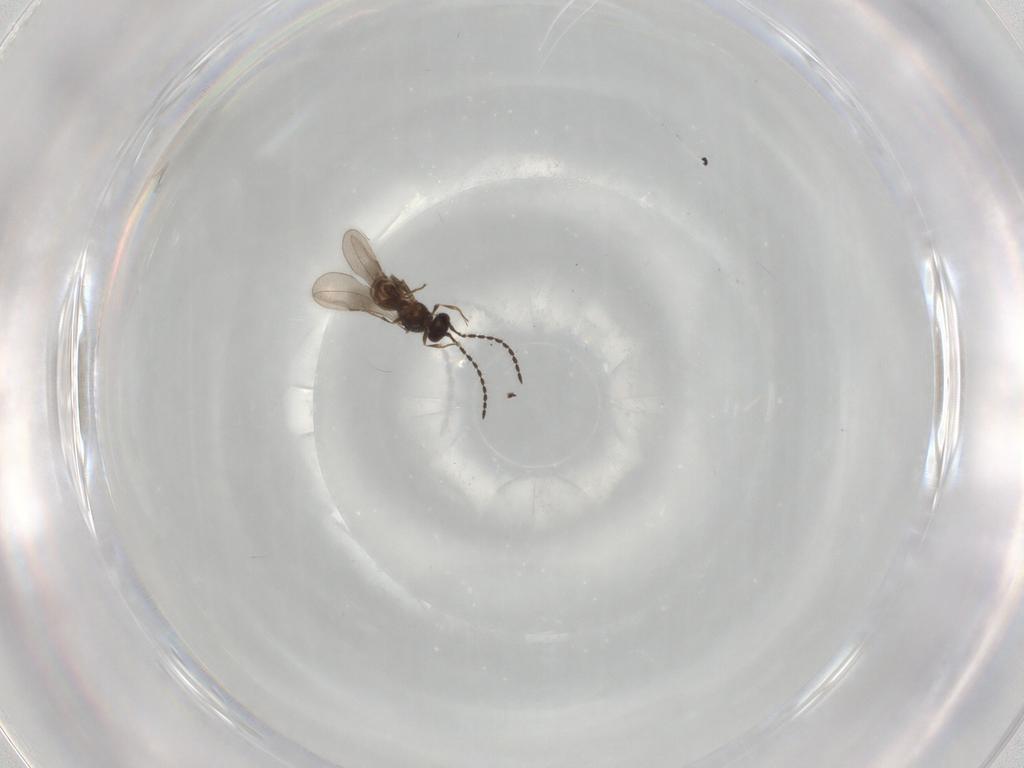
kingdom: Animalia
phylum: Arthropoda
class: Insecta
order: Hymenoptera
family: Ceraphronidae
